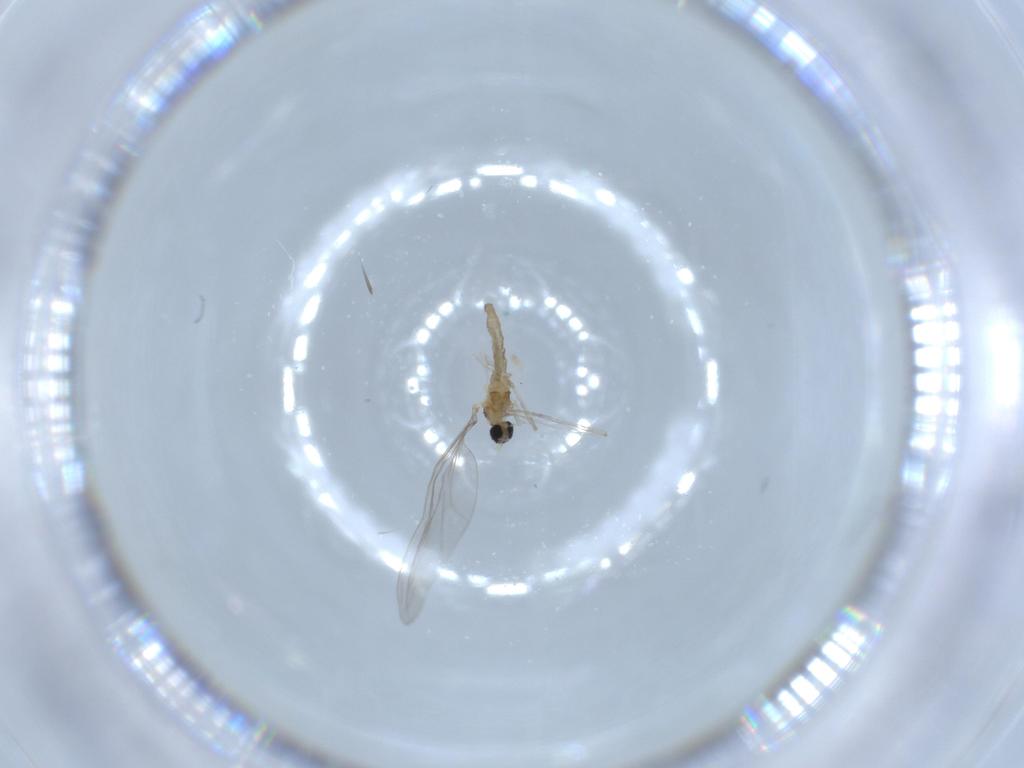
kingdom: Animalia
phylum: Arthropoda
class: Insecta
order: Diptera
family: Cecidomyiidae
